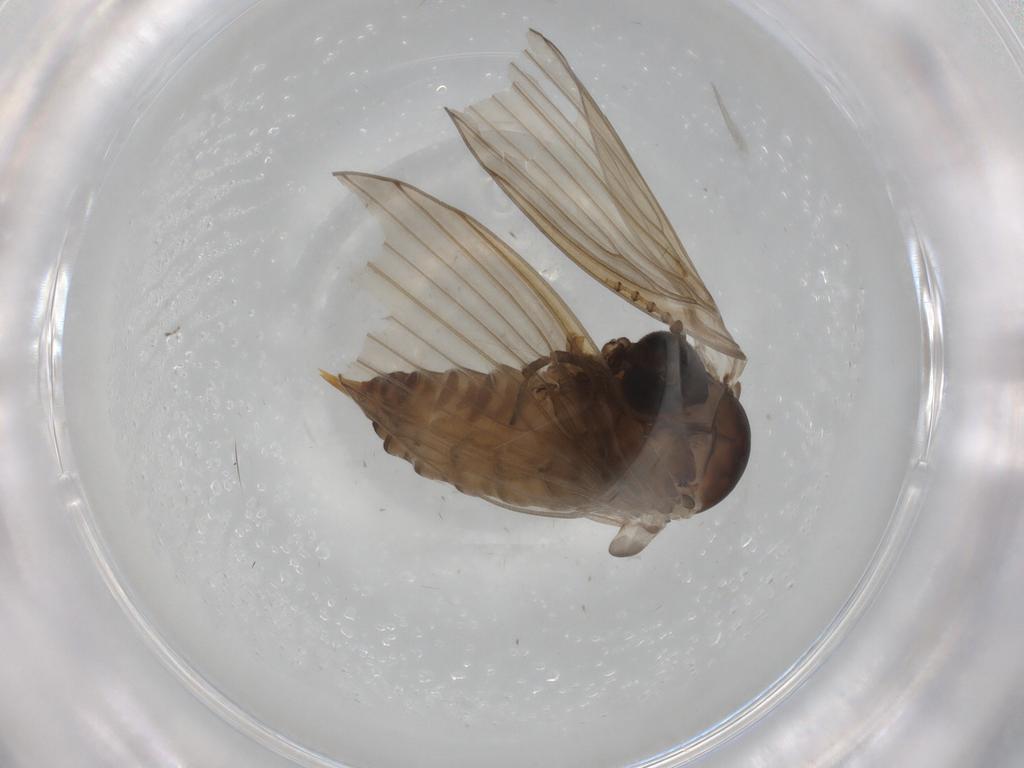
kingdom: Animalia
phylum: Arthropoda
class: Insecta
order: Diptera
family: Psychodidae
